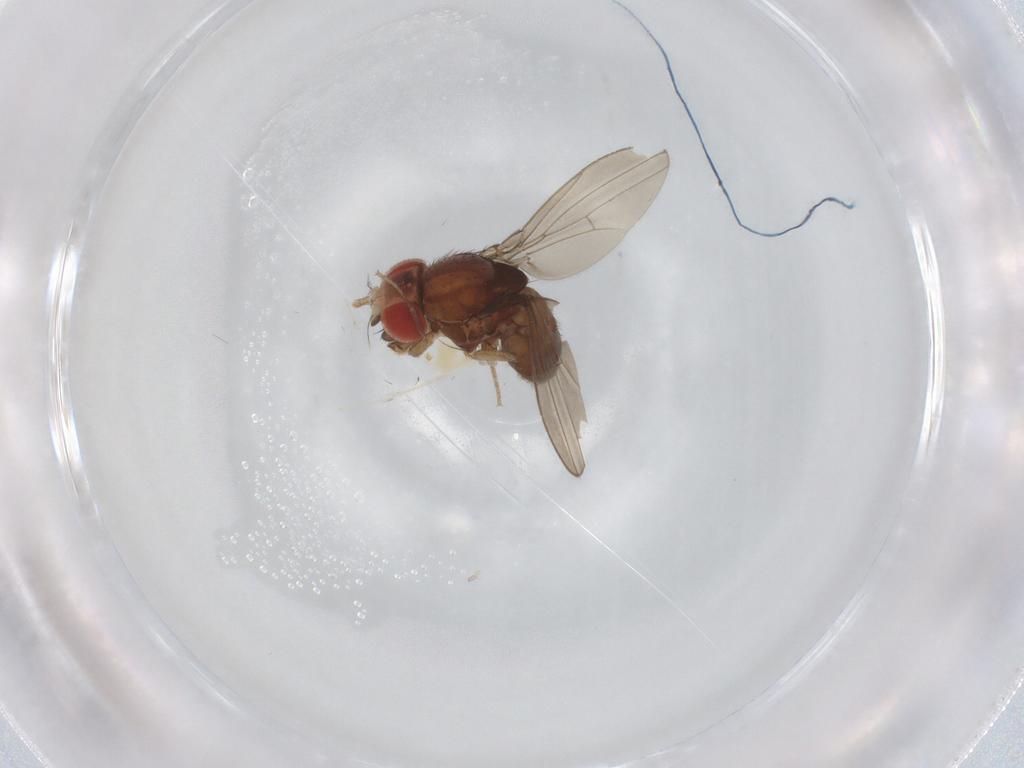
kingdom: Animalia
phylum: Arthropoda
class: Insecta
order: Diptera
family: Drosophilidae
